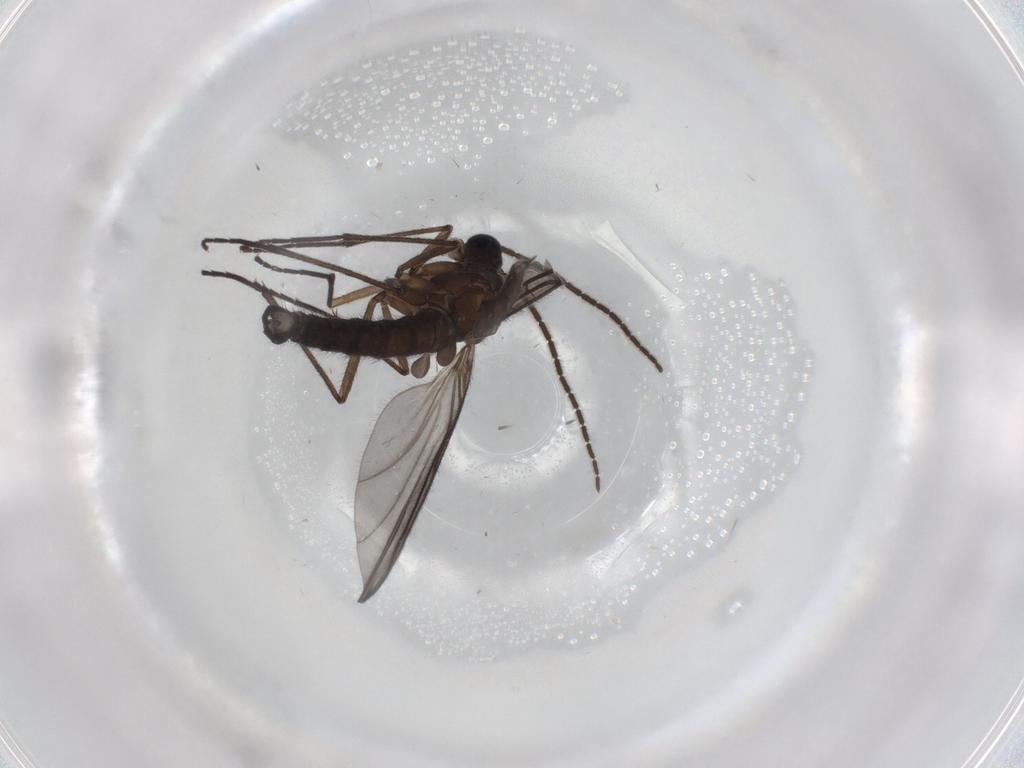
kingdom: Animalia
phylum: Arthropoda
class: Insecta
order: Diptera
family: Sciaridae
